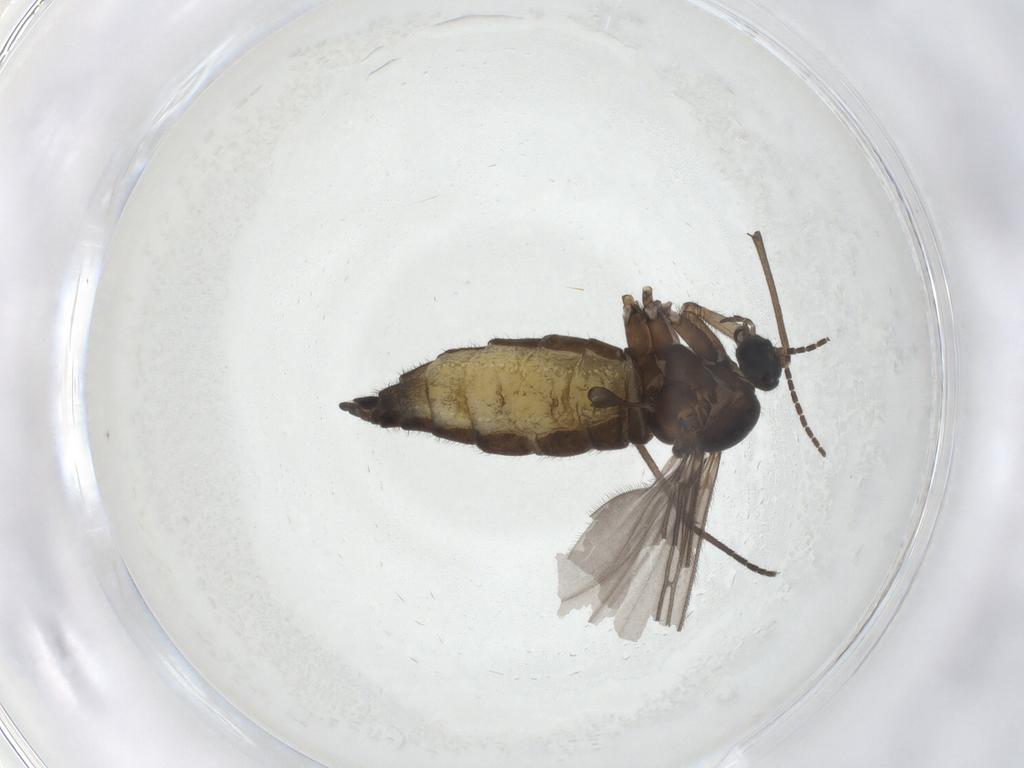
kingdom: Animalia
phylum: Arthropoda
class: Insecta
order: Diptera
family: Sciaridae
